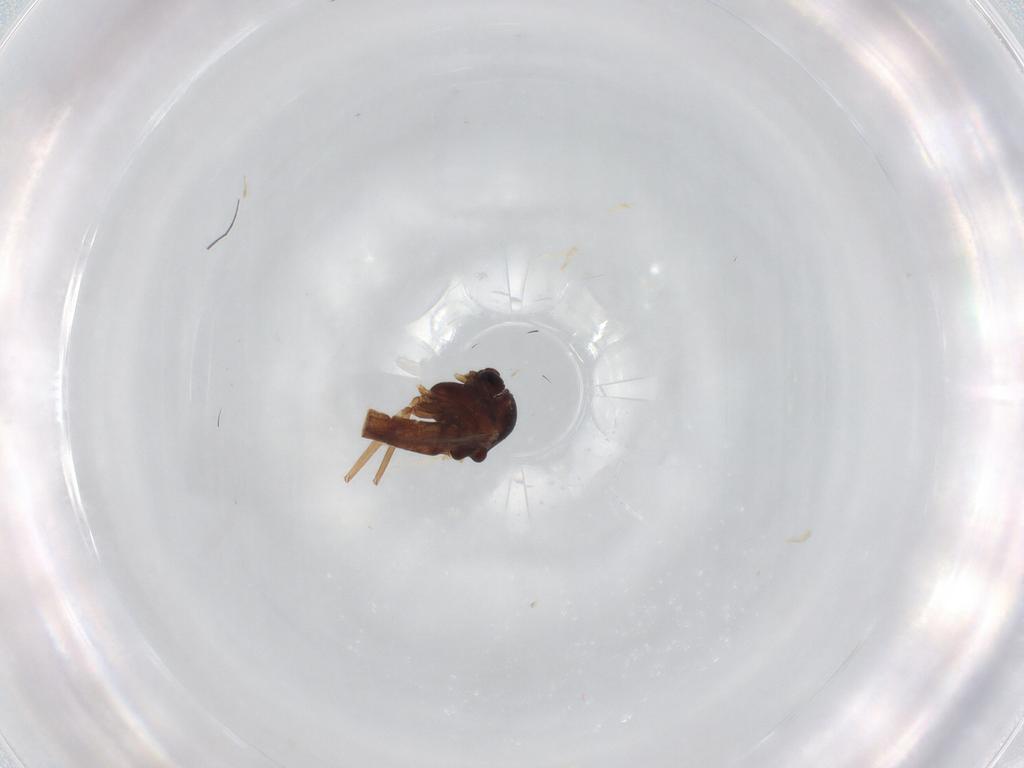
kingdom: Animalia
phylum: Arthropoda
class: Insecta
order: Diptera
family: Chironomidae
